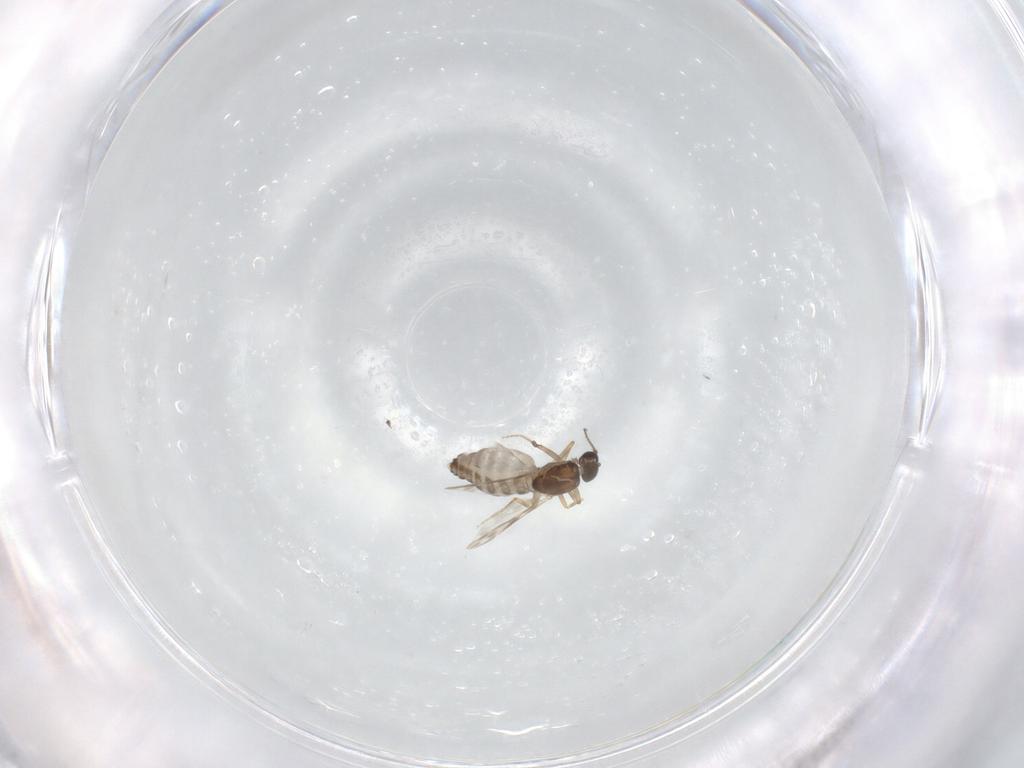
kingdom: Animalia
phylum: Arthropoda
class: Insecta
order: Diptera
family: Ceratopogonidae
